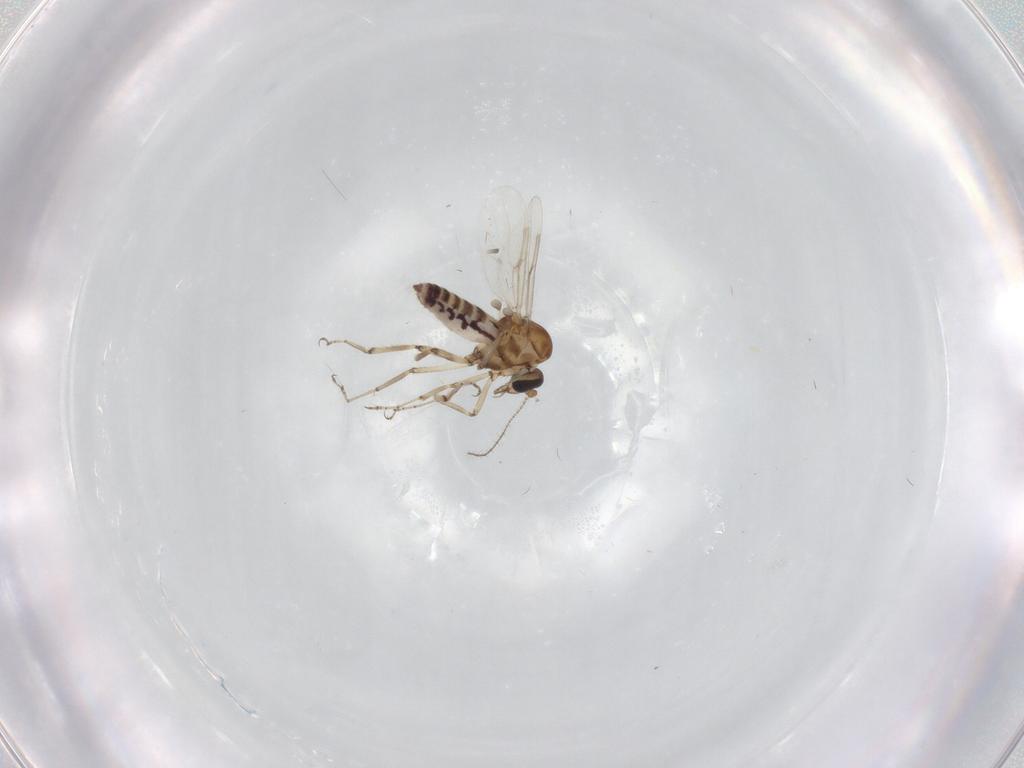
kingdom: Animalia
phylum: Arthropoda
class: Insecta
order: Diptera
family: Ceratopogonidae
